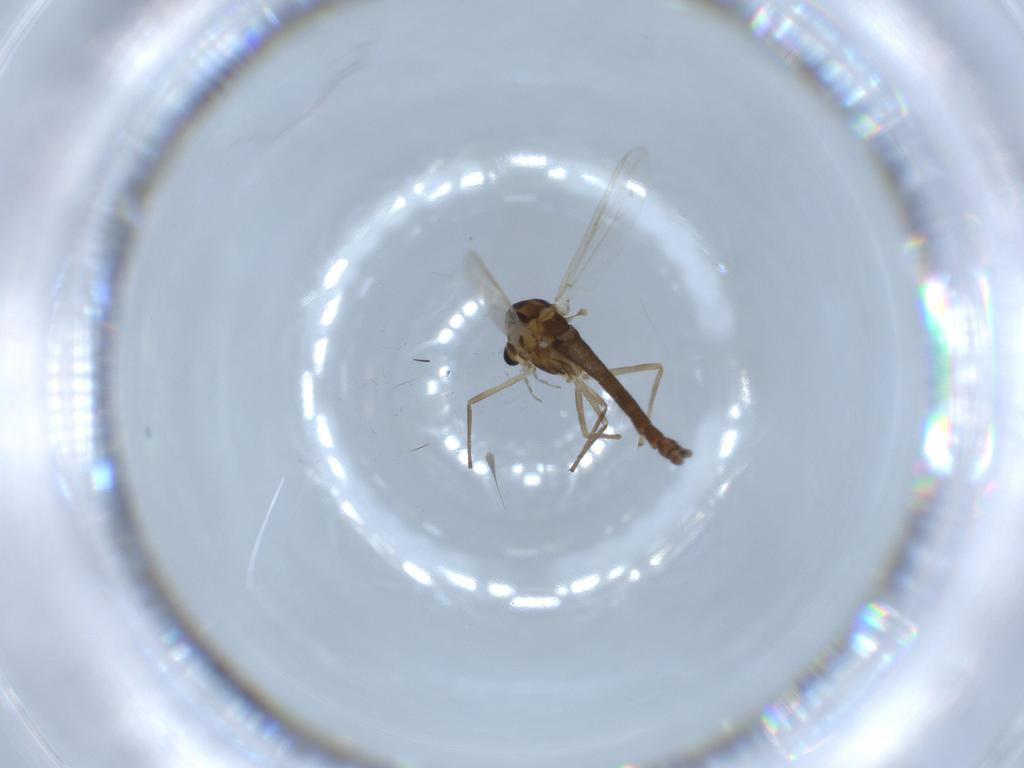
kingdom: Animalia
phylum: Arthropoda
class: Insecta
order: Diptera
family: Chironomidae
